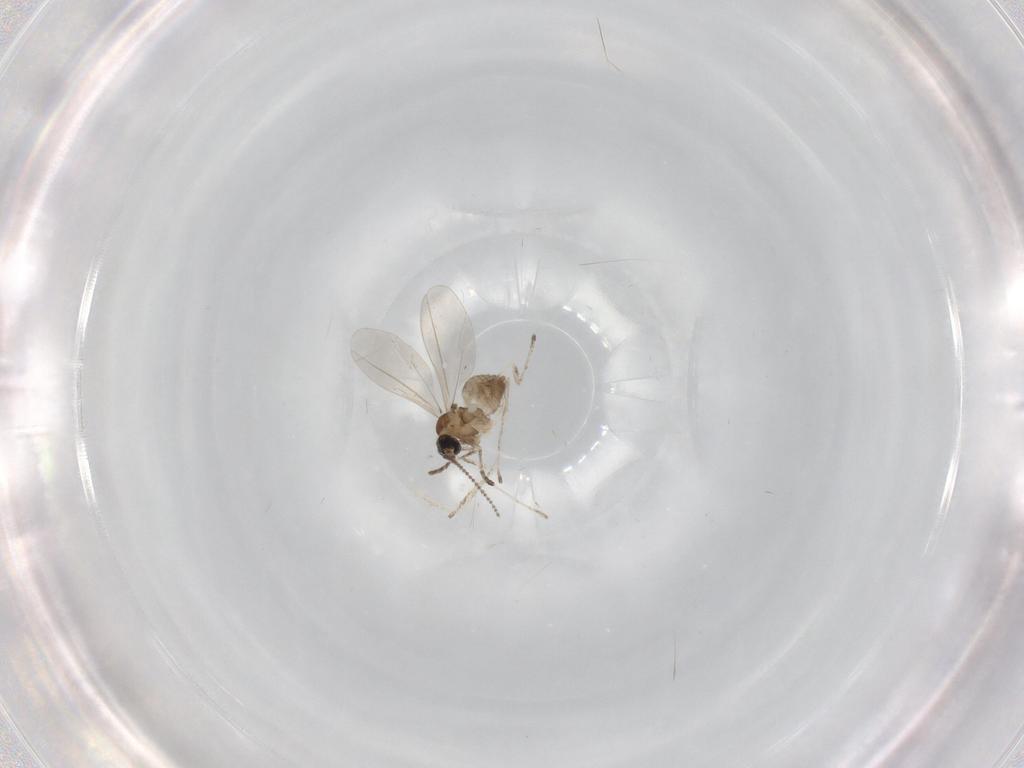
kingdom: Animalia
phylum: Arthropoda
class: Insecta
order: Diptera
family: Cecidomyiidae
